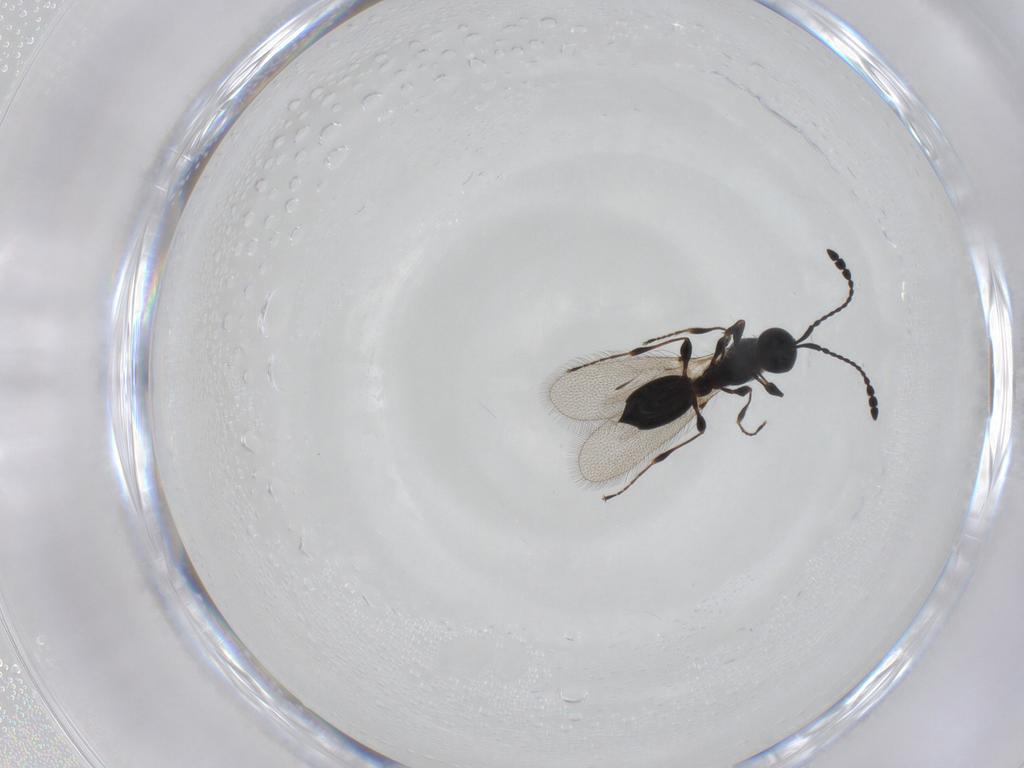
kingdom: Animalia
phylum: Arthropoda
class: Insecta
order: Hymenoptera
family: Diapriidae
